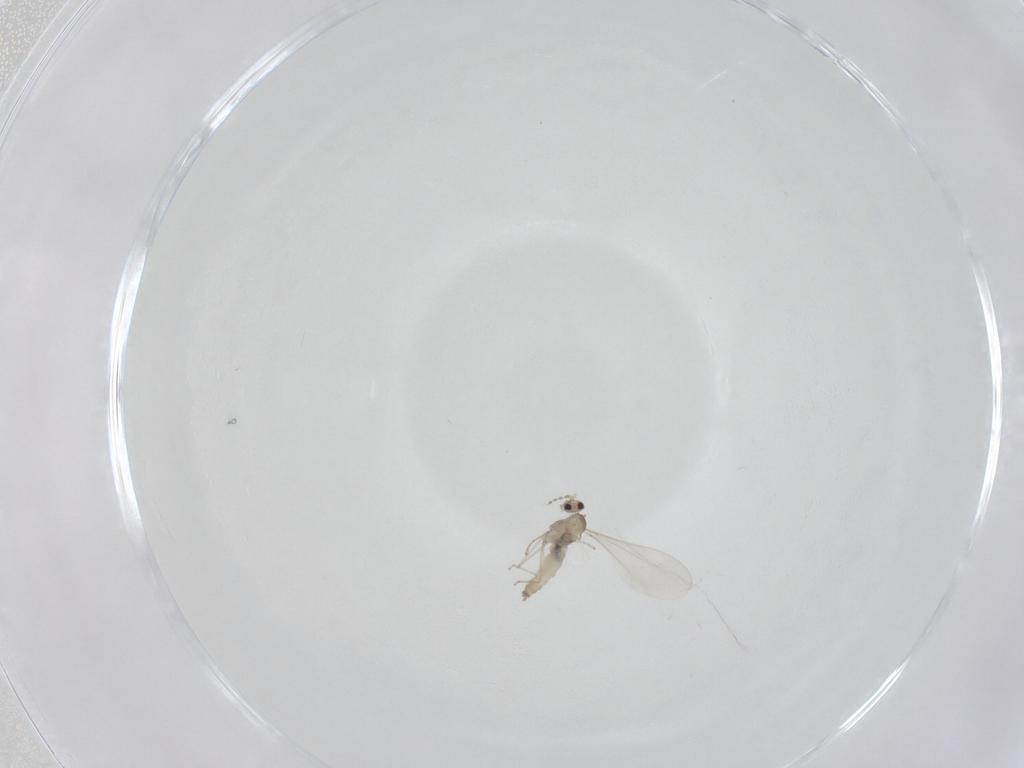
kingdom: Animalia
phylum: Arthropoda
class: Insecta
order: Diptera
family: Cecidomyiidae
